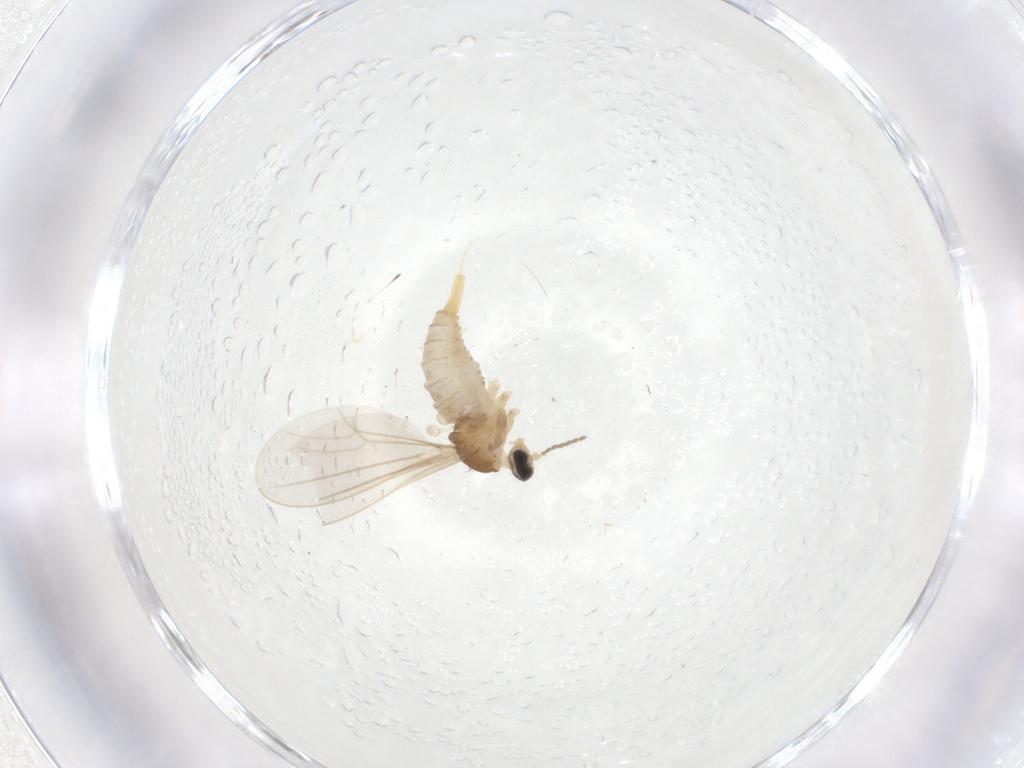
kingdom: Animalia
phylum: Arthropoda
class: Insecta
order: Diptera
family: Cecidomyiidae
